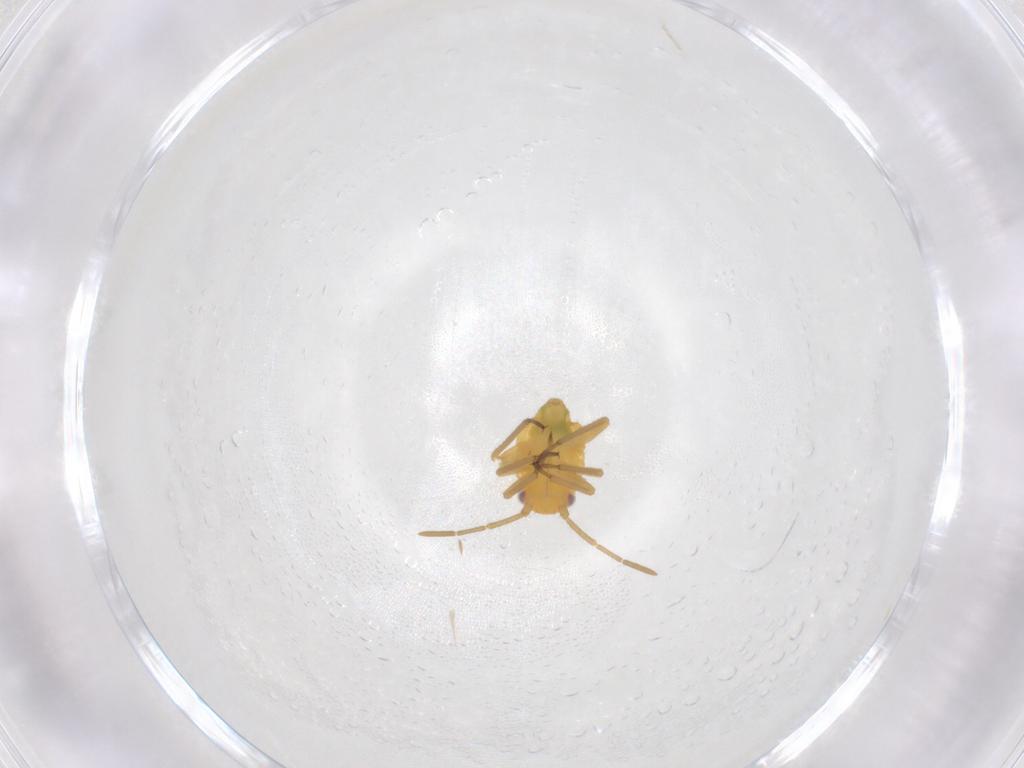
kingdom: Animalia
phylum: Arthropoda
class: Insecta
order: Hemiptera
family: Miridae
